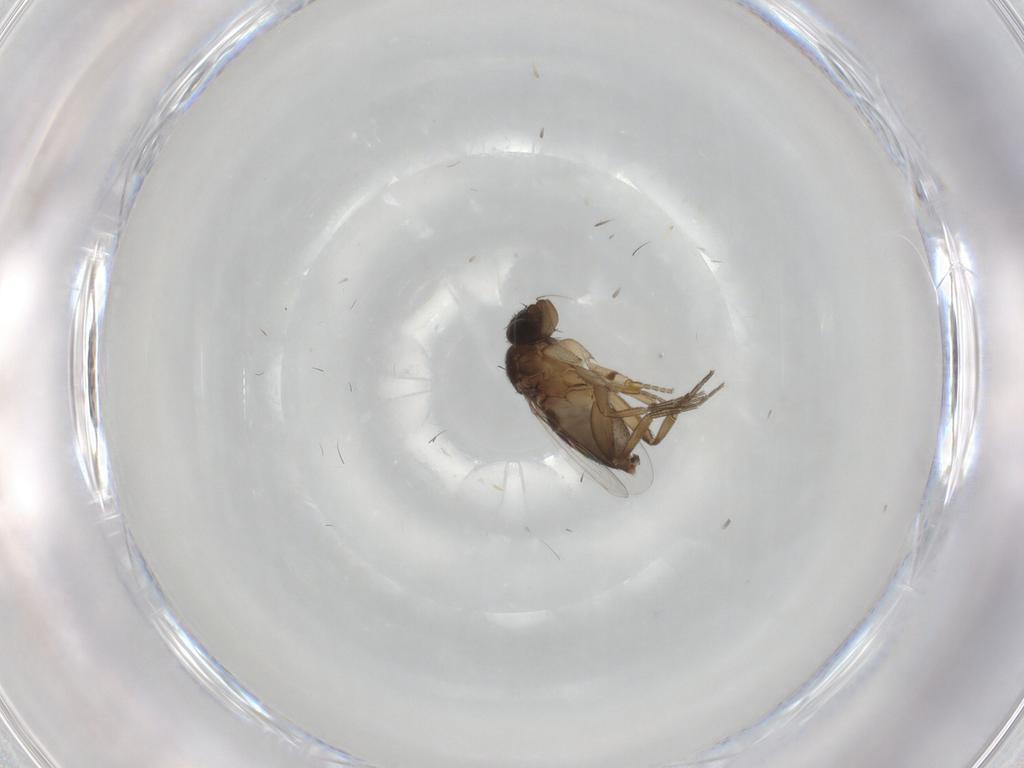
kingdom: Animalia
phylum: Arthropoda
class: Insecta
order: Diptera
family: Phoridae
